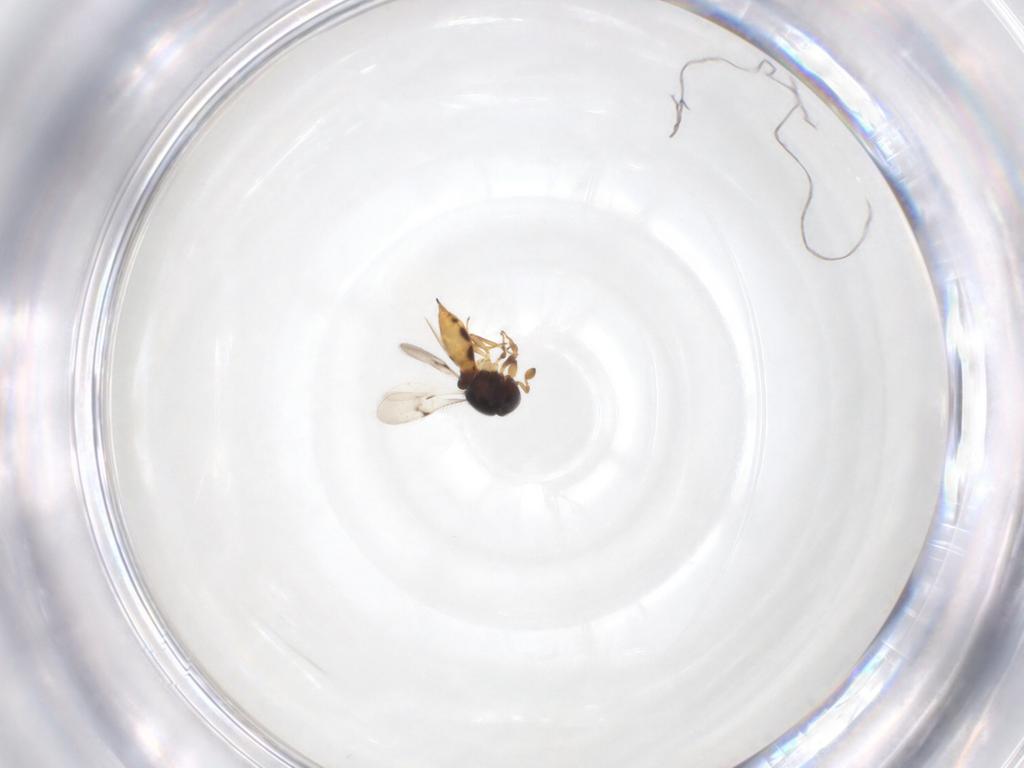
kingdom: Animalia
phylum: Arthropoda
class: Insecta
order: Hymenoptera
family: Scelionidae
